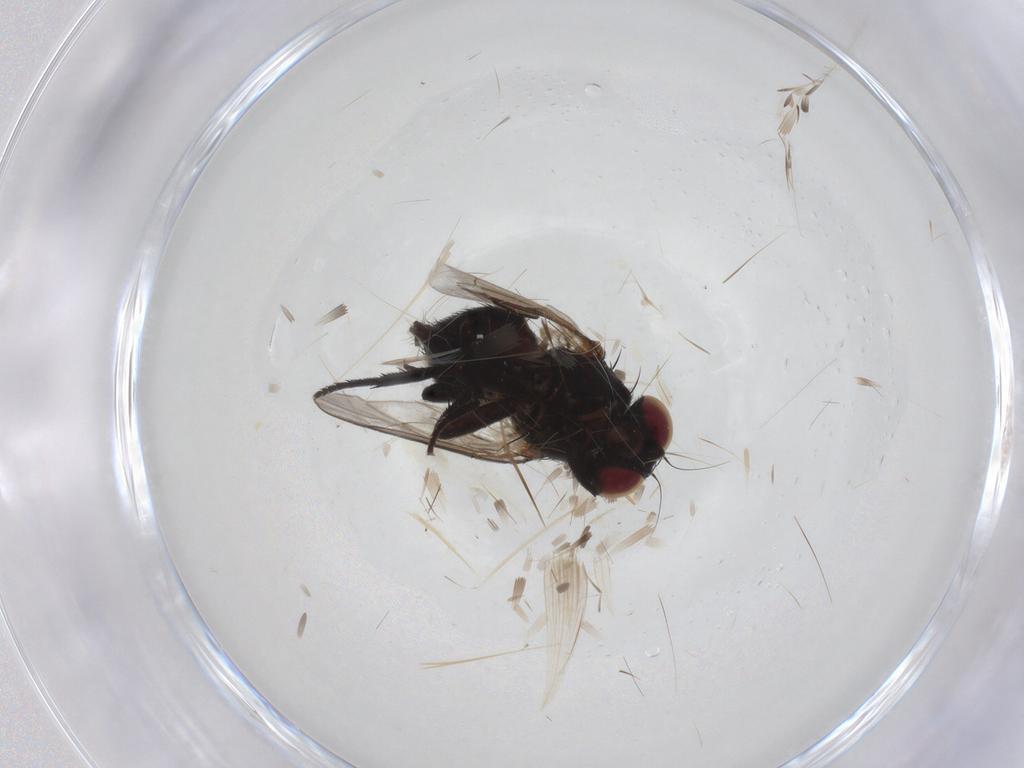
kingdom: Animalia
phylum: Arthropoda
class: Insecta
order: Diptera
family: Agromyzidae
